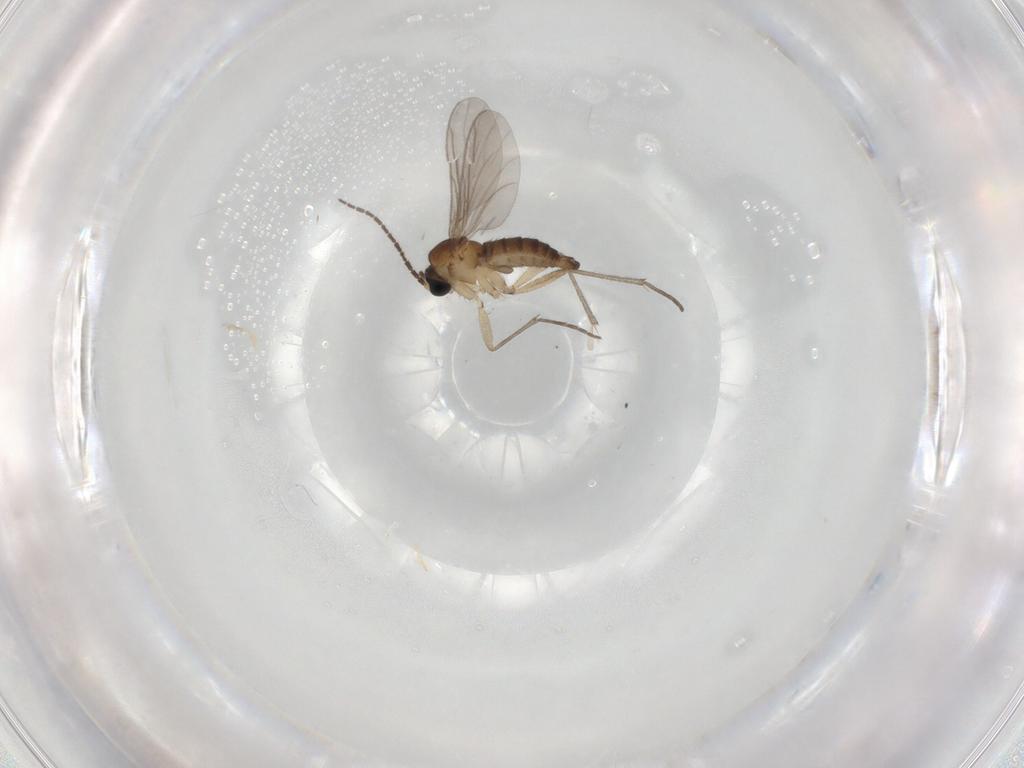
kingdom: Animalia
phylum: Arthropoda
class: Insecta
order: Diptera
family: Sciaridae
